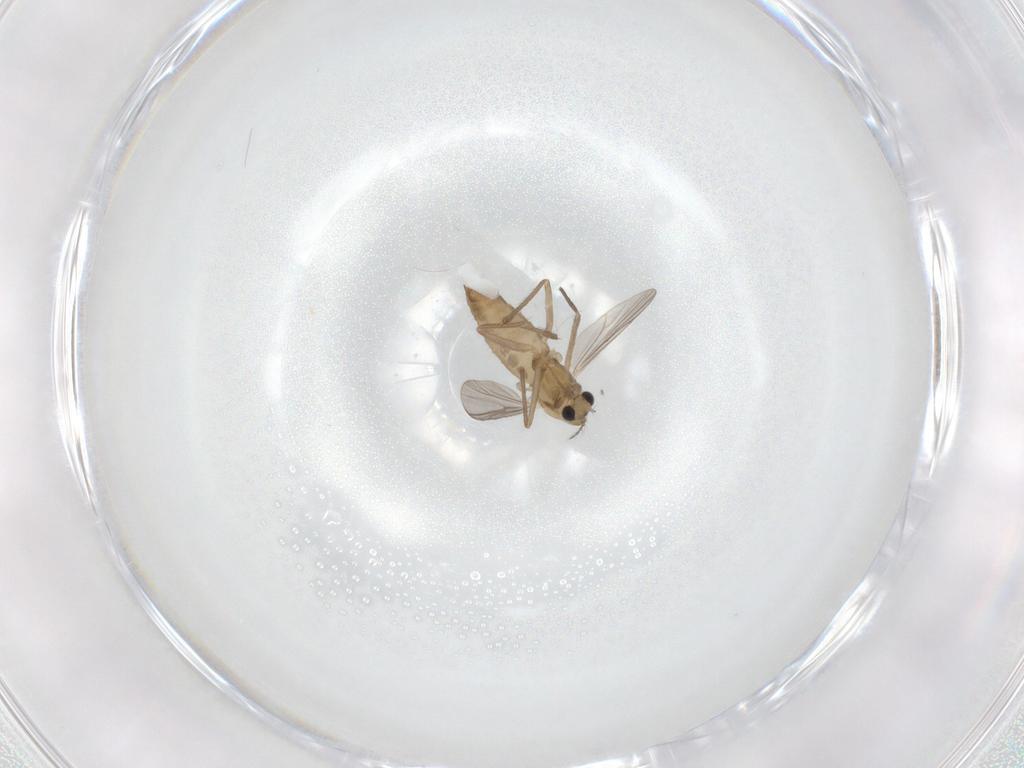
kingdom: Animalia
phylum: Arthropoda
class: Insecta
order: Diptera
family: Chironomidae
